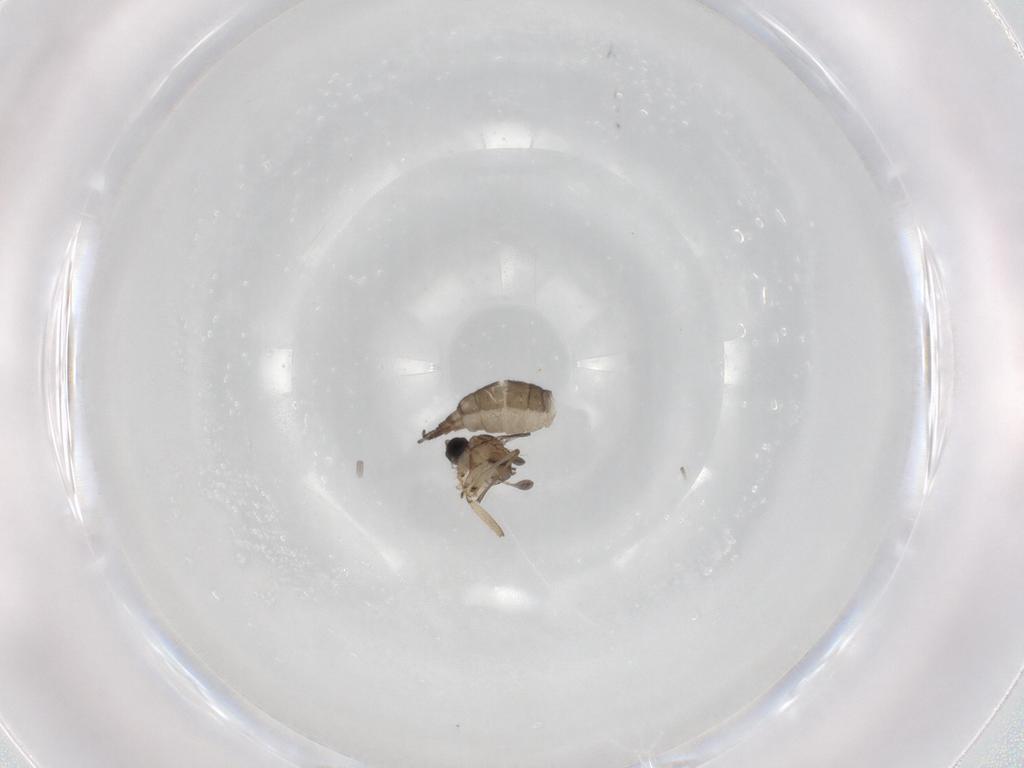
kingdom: Animalia
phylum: Arthropoda
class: Insecta
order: Diptera
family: Sciaridae
